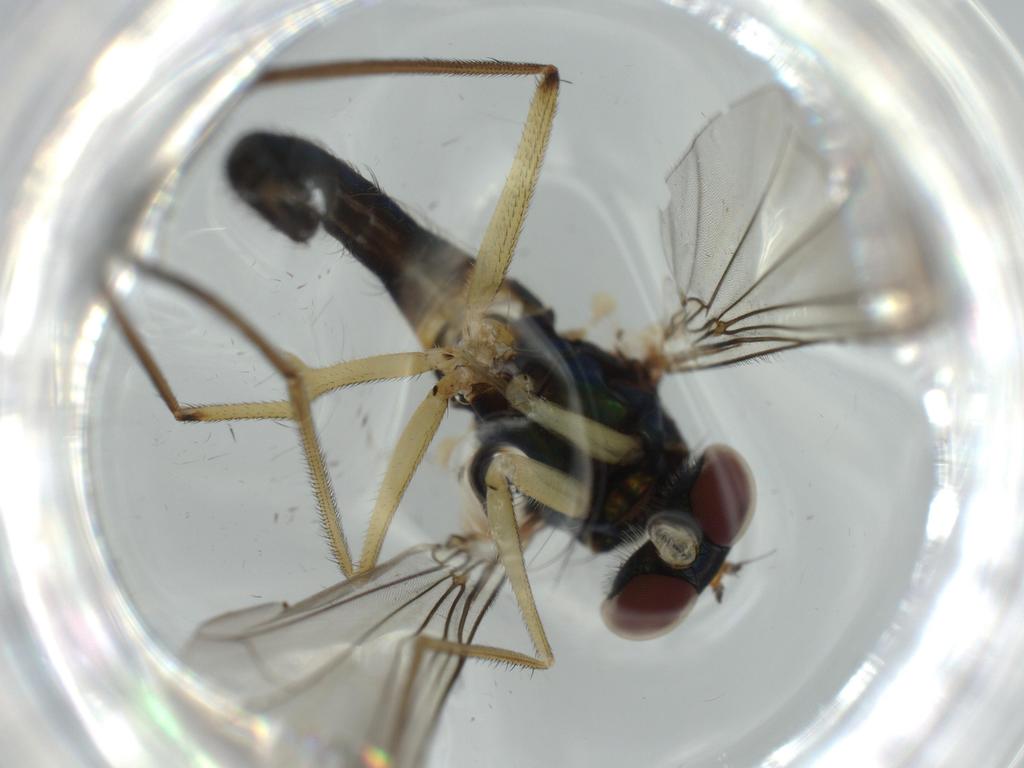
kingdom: Animalia
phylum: Arthropoda
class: Insecta
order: Diptera
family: Dolichopodidae
